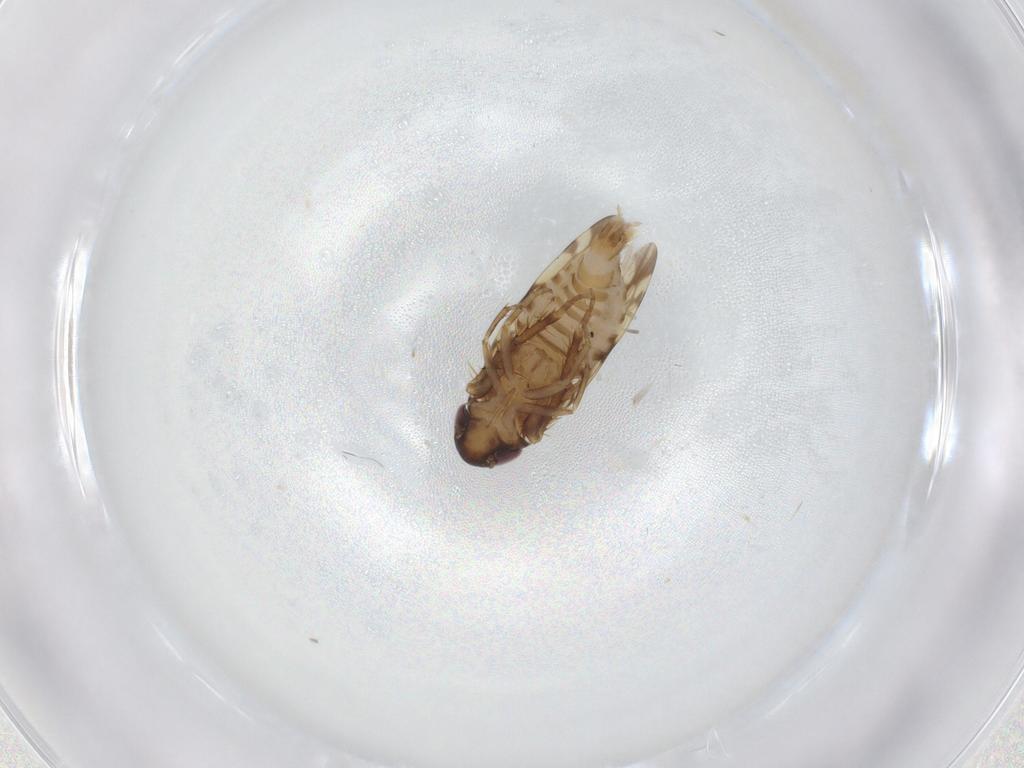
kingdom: Animalia
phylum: Arthropoda
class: Insecta
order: Hemiptera
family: Cicadellidae
